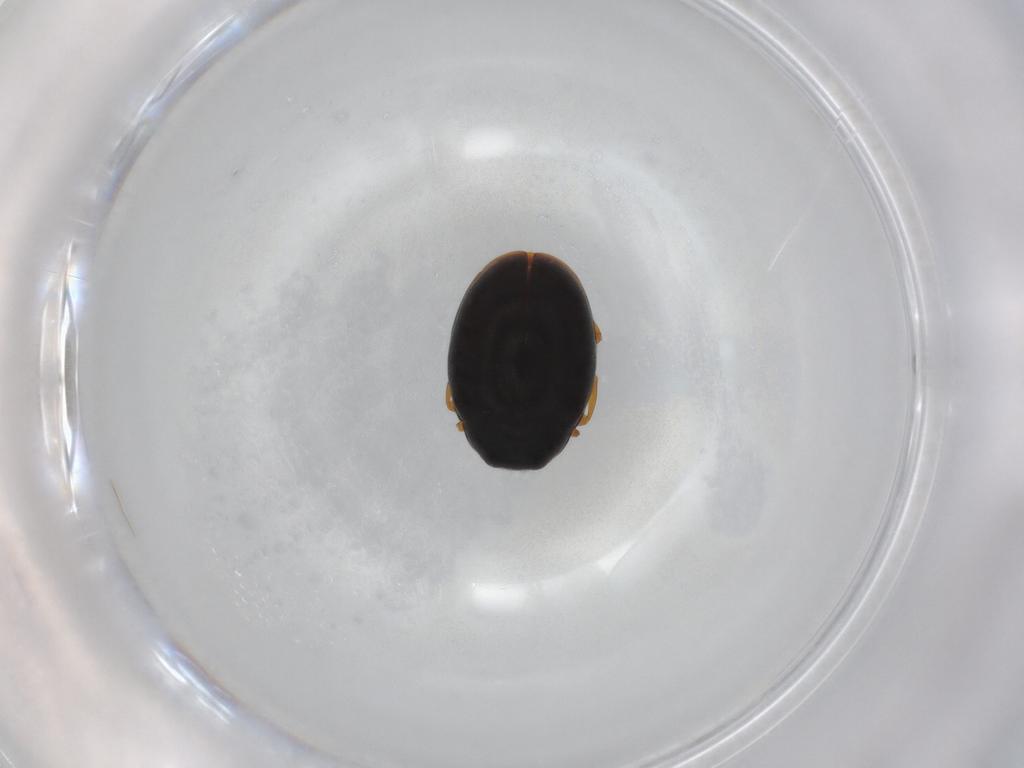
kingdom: Animalia
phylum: Arthropoda
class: Insecta
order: Coleoptera
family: Coccinellidae
